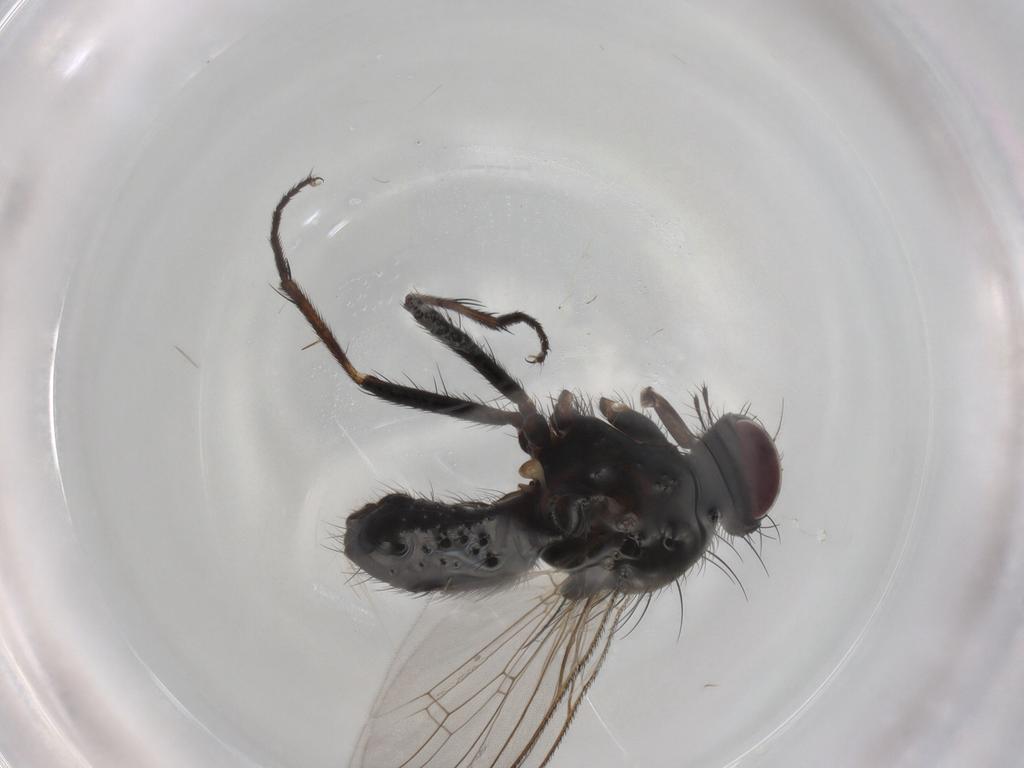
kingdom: Animalia
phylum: Arthropoda
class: Insecta
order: Diptera
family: Muscidae
